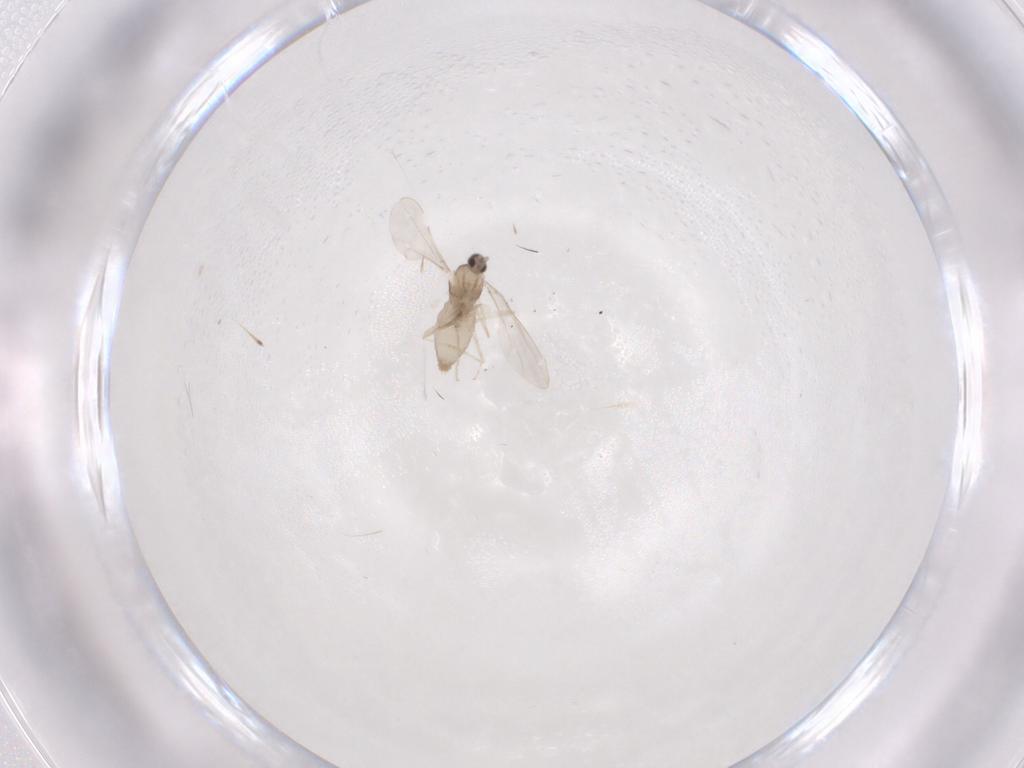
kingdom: Animalia
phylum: Arthropoda
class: Insecta
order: Diptera
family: Cecidomyiidae
